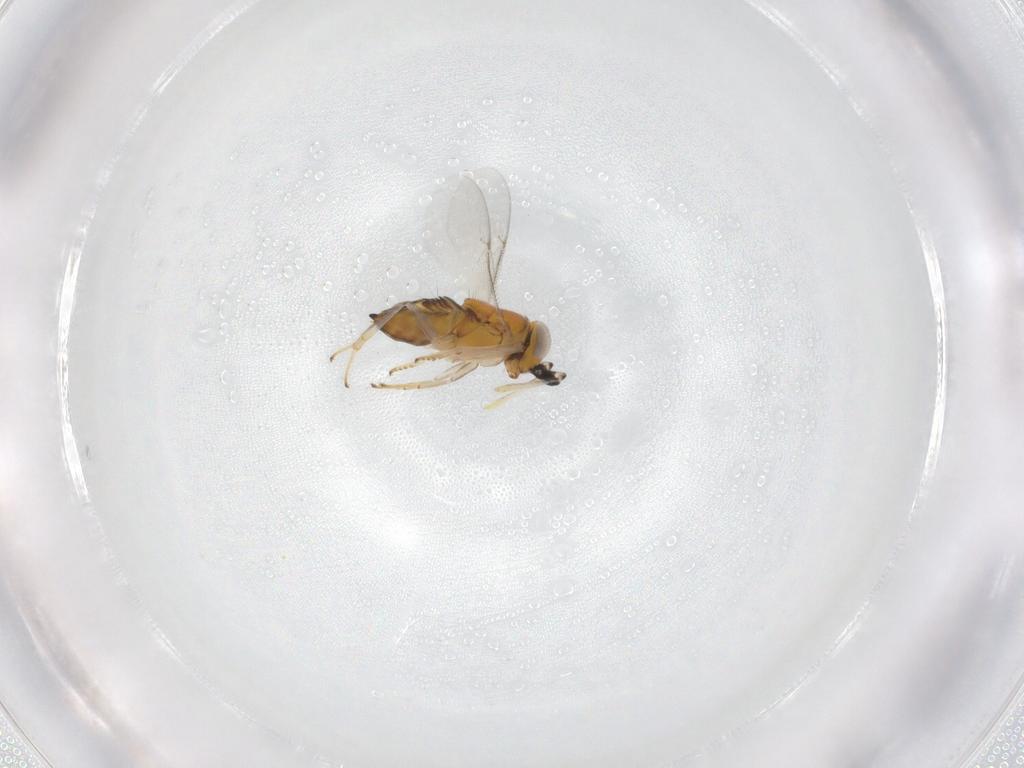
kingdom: Animalia
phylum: Arthropoda
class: Insecta
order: Hymenoptera
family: Encyrtidae
